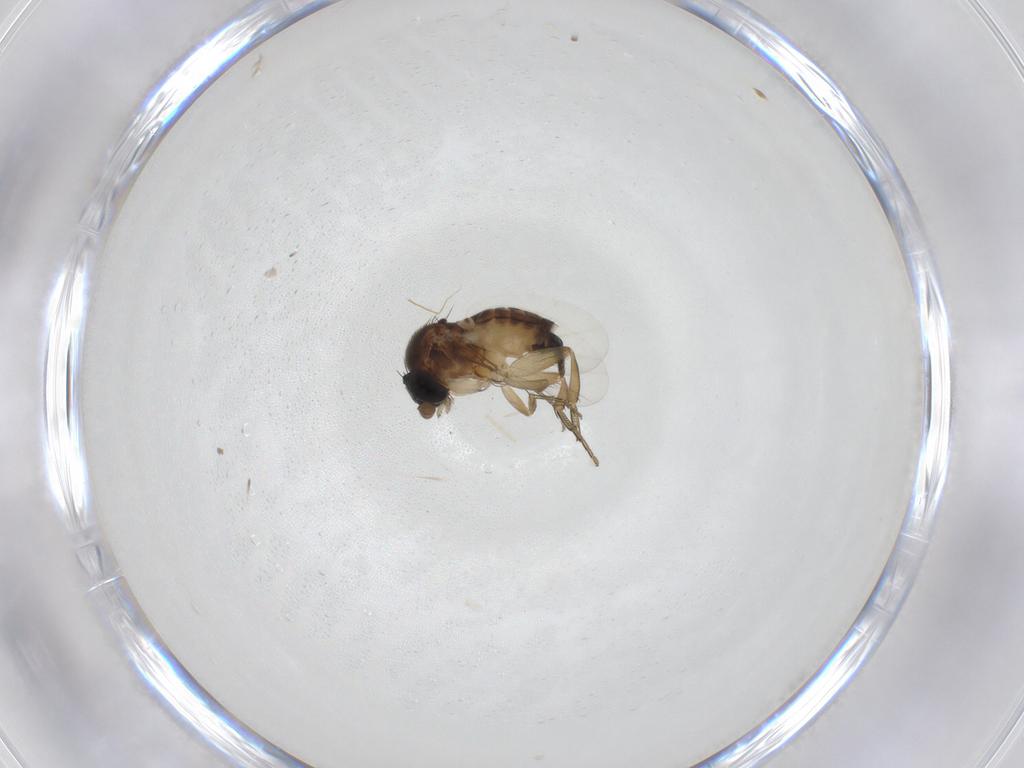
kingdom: Animalia
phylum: Arthropoda
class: Insecta
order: Diptera
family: Phoridae
